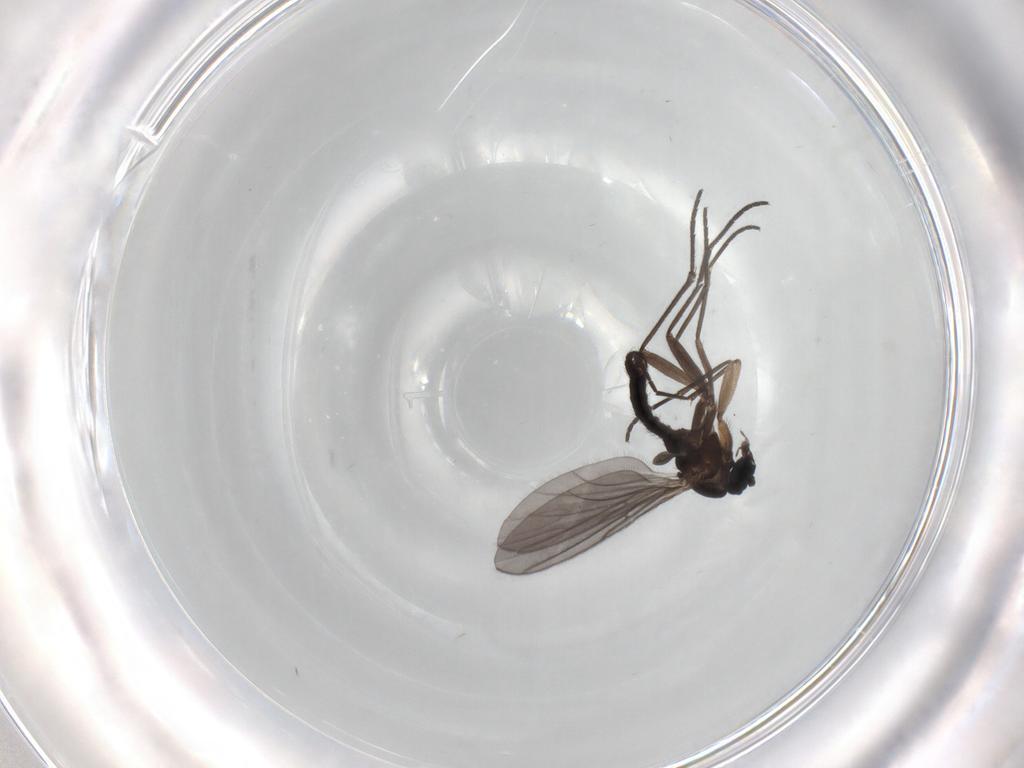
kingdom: Animalia
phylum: Arthropoda
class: Insecta
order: Diptera
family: Sciaridae
